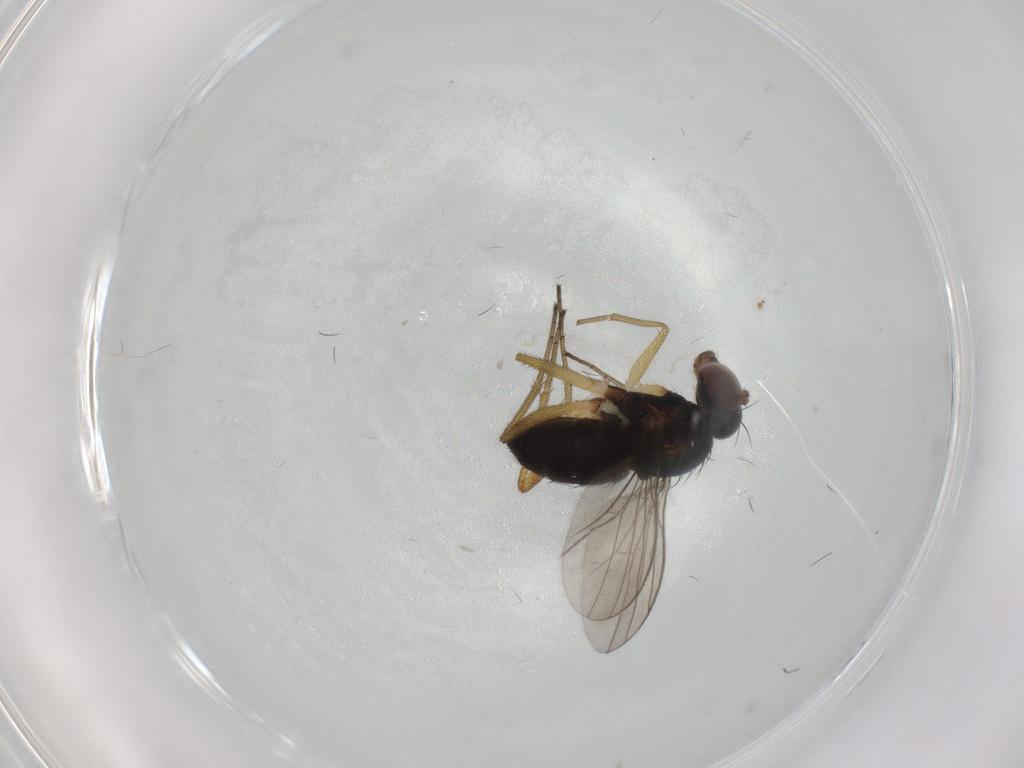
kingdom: Animalia
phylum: Arthropoda
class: Insecta
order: Diptera
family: Dolichopodidae
